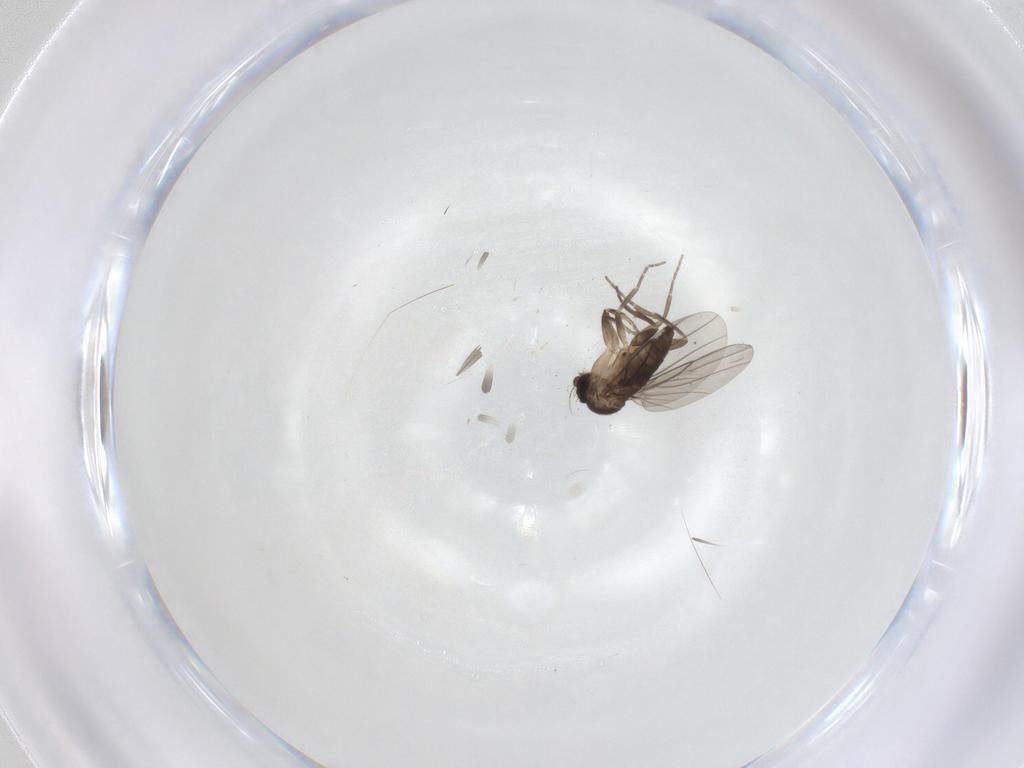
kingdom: Animalia
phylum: Arthropoda
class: Insecta
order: Diptera
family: Phoridae
